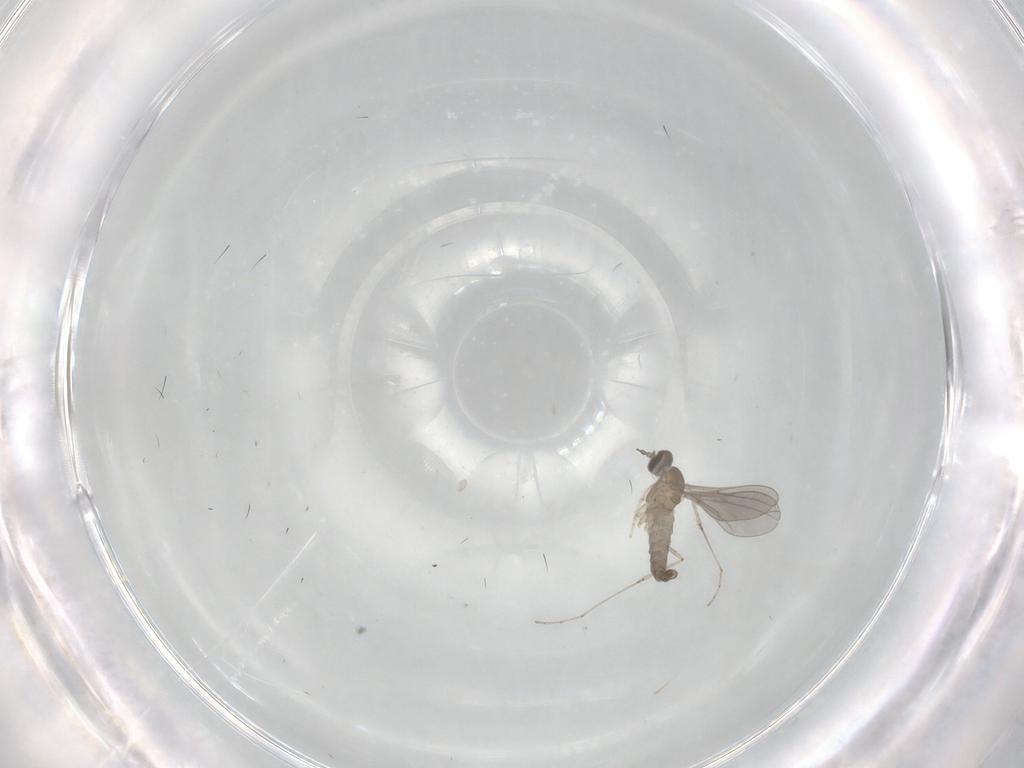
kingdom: Animalia
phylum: Arthropoda
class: Insecta
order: Diptera
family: Cecidomyiidae
